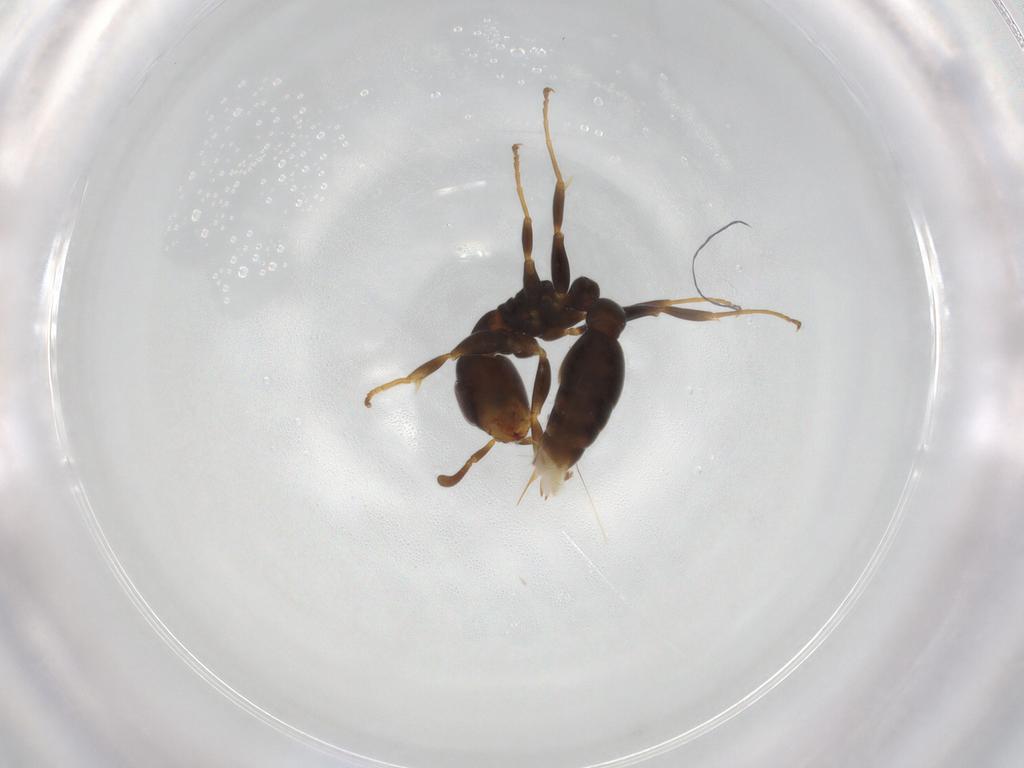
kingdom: Animalia
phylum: Arthropoda
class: Insecta
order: Hymenoptera
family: Formicidae
